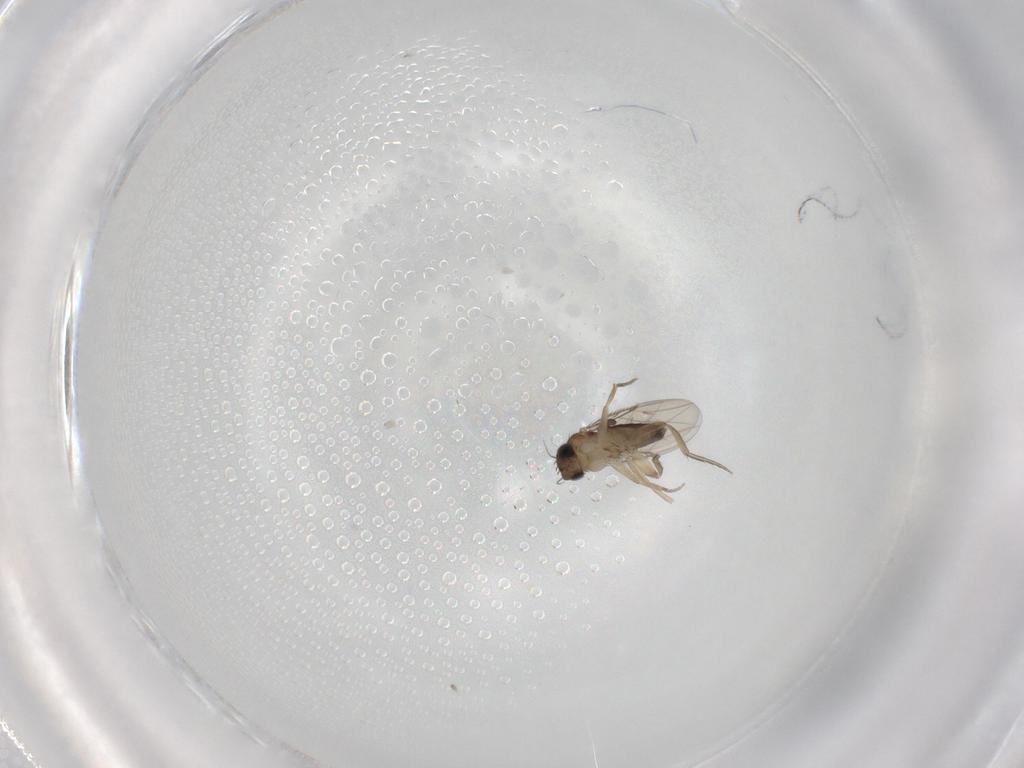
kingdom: Animalia
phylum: Arthropoda
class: Insecta
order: Diptera
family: Phoridae
